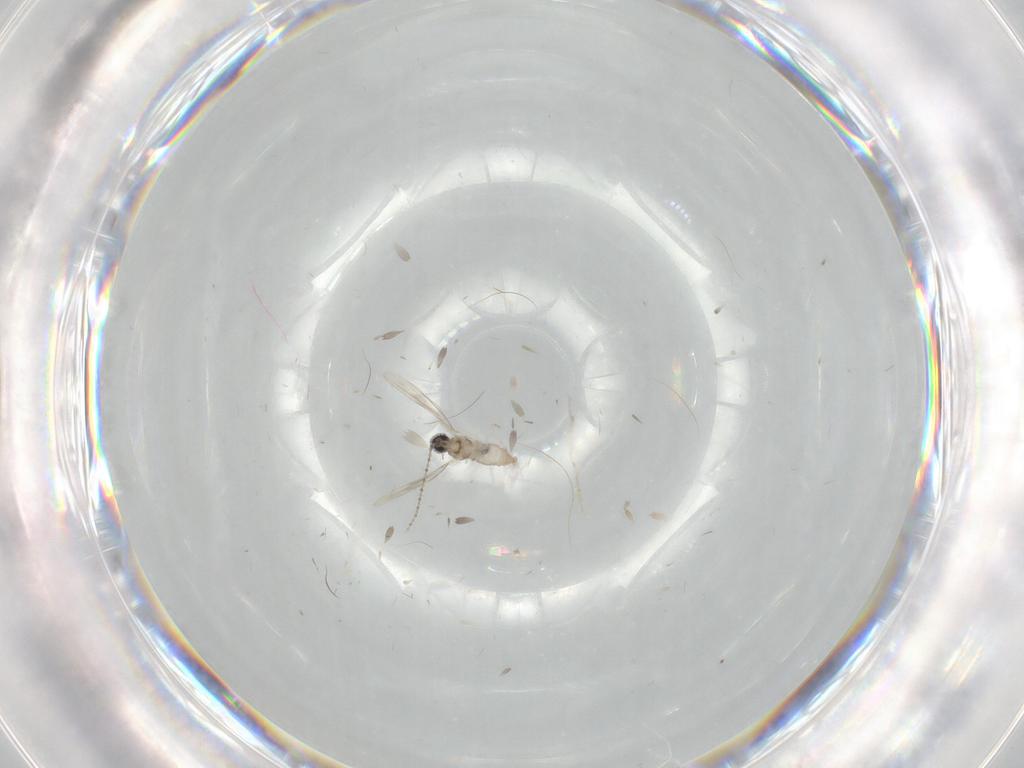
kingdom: Animalia
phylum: Arthropoda
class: Insecta
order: Diptera
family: Cecidomyiidae
